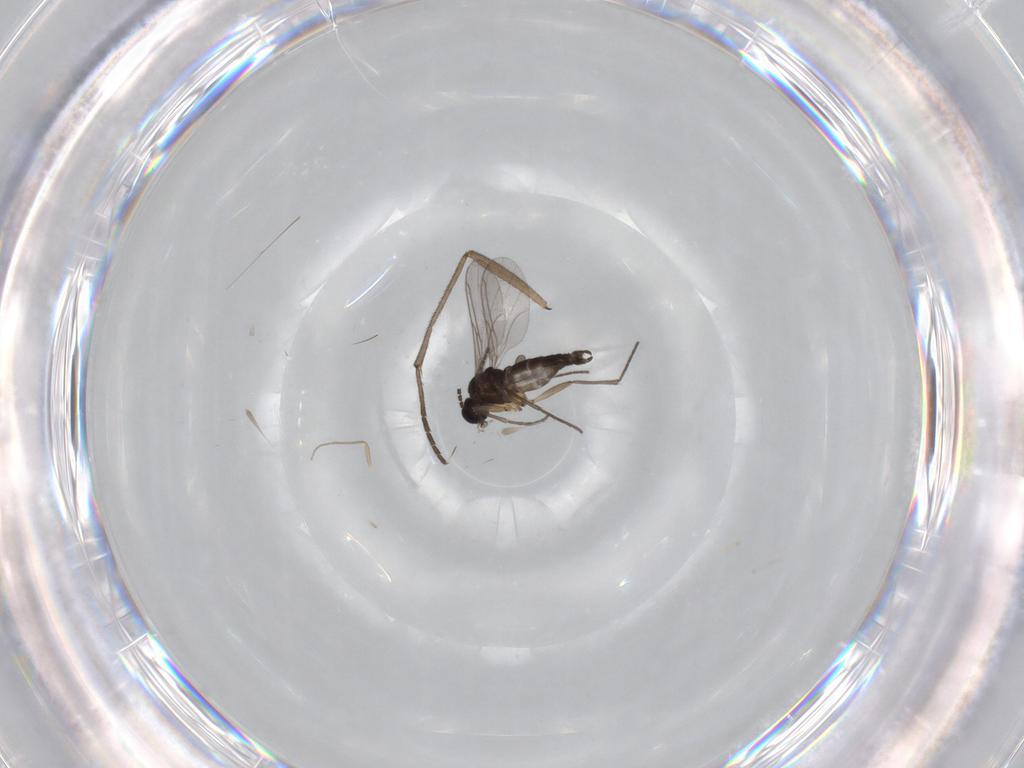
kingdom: Animalia
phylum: Arthropoda
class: Insecta
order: Diptera
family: Sciaridae
